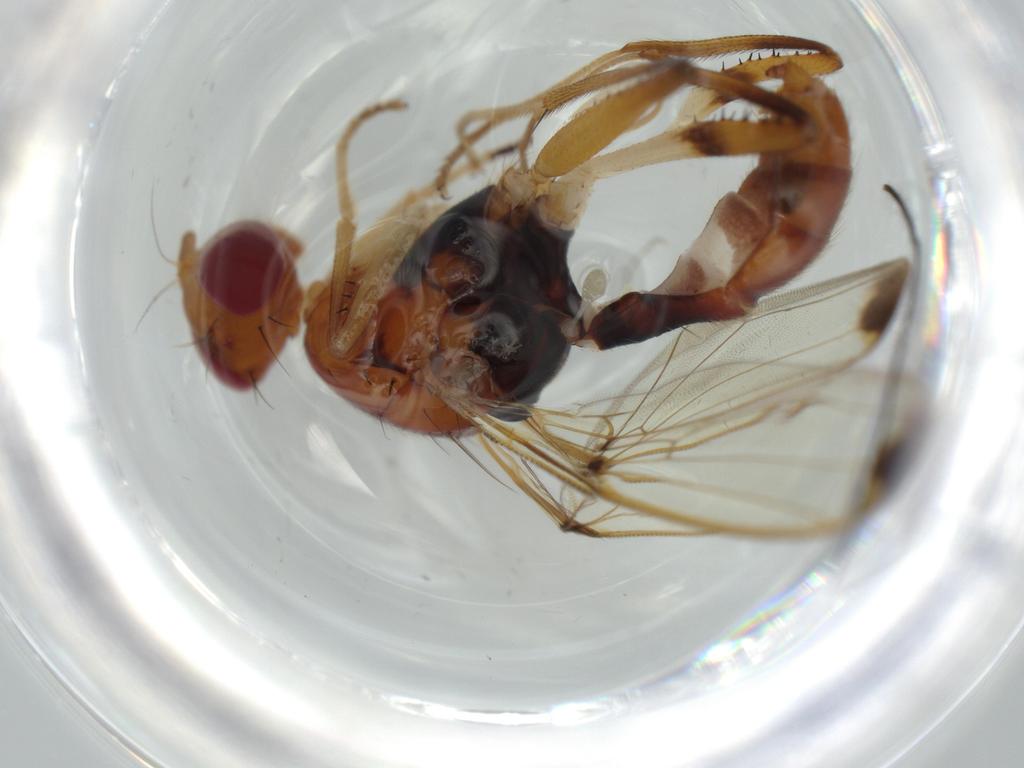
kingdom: Animalia
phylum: Arthropoda
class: Insecta
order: Diptera
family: Richardiidae
